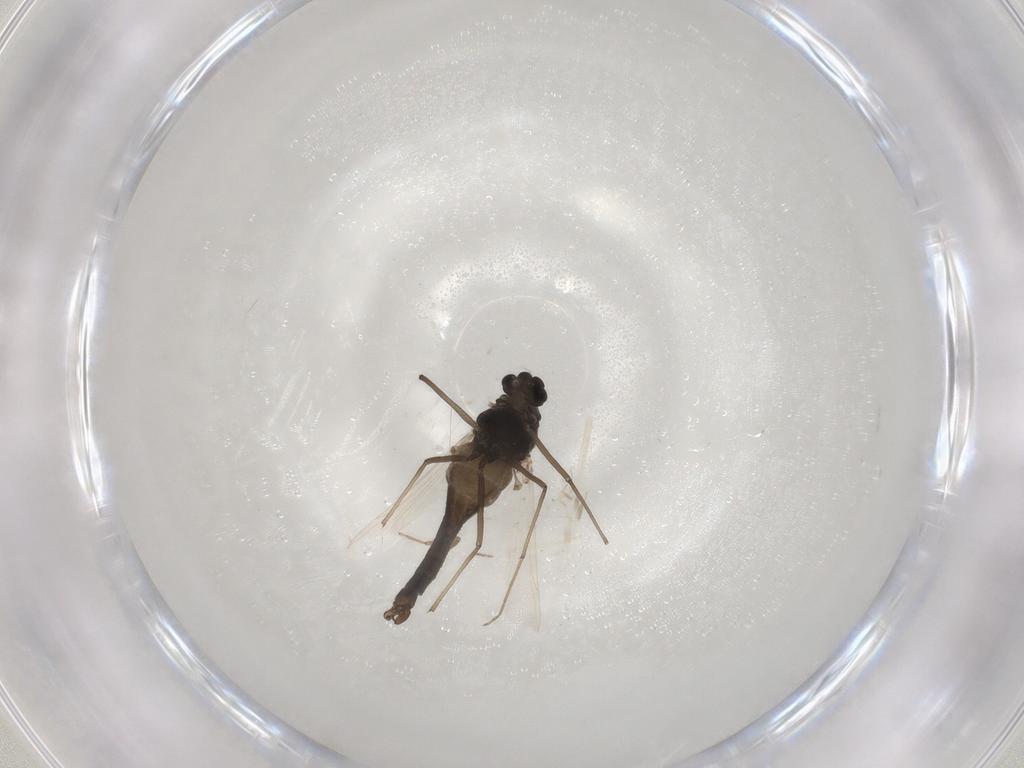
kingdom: Animalia
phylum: Arthropoda
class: Insecta
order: Diptera
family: Chironomidae
